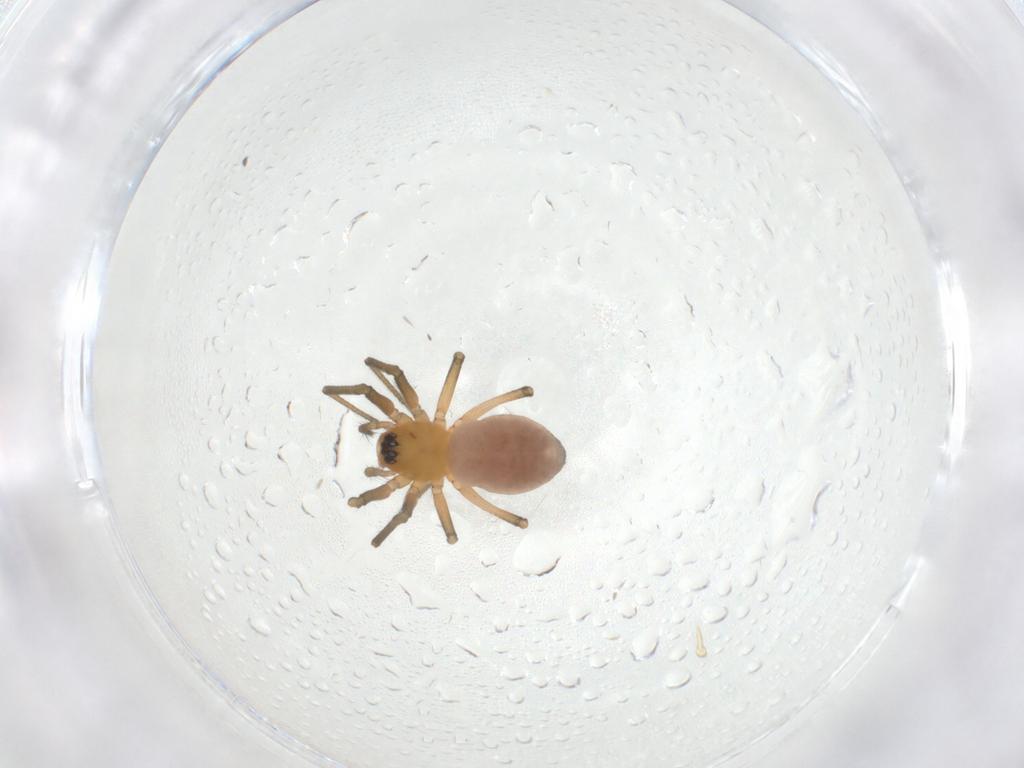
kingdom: Animalia
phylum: Arthropoda
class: Arachnida
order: Araneae
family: Linyphiidae
